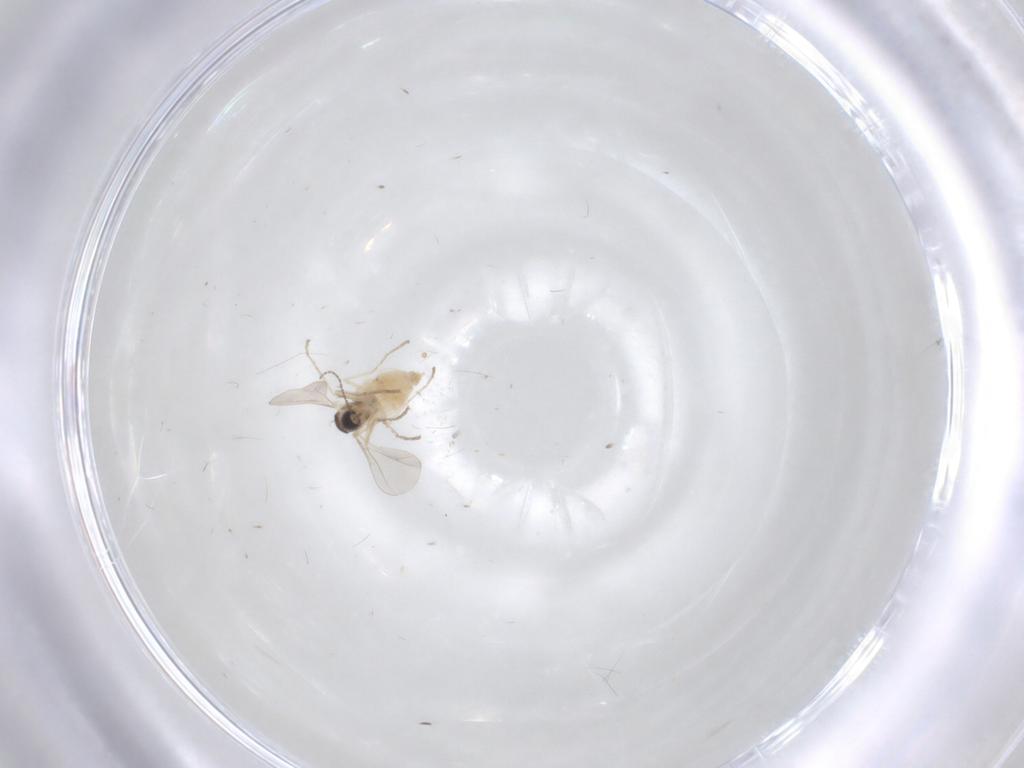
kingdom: Animalia
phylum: Arthropoda
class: Insecta
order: Diptera
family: Cecidomyiidae
